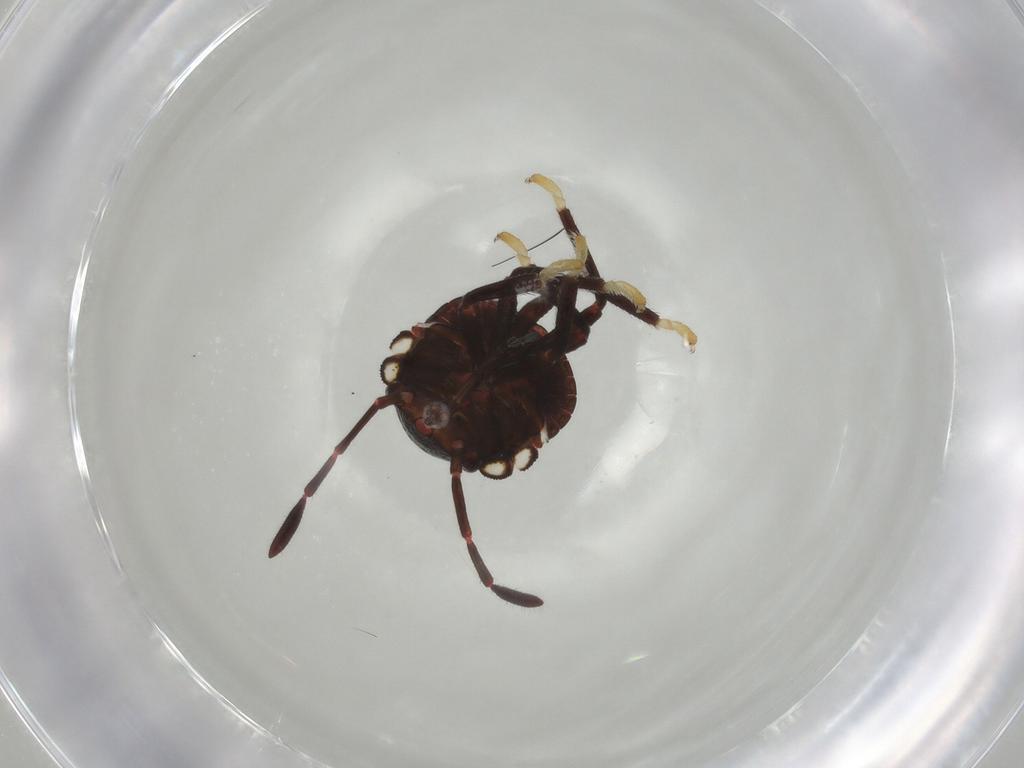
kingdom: Animalia
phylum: Arthropoda
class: Insecta
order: Hemiptera
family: Pentatomidae
